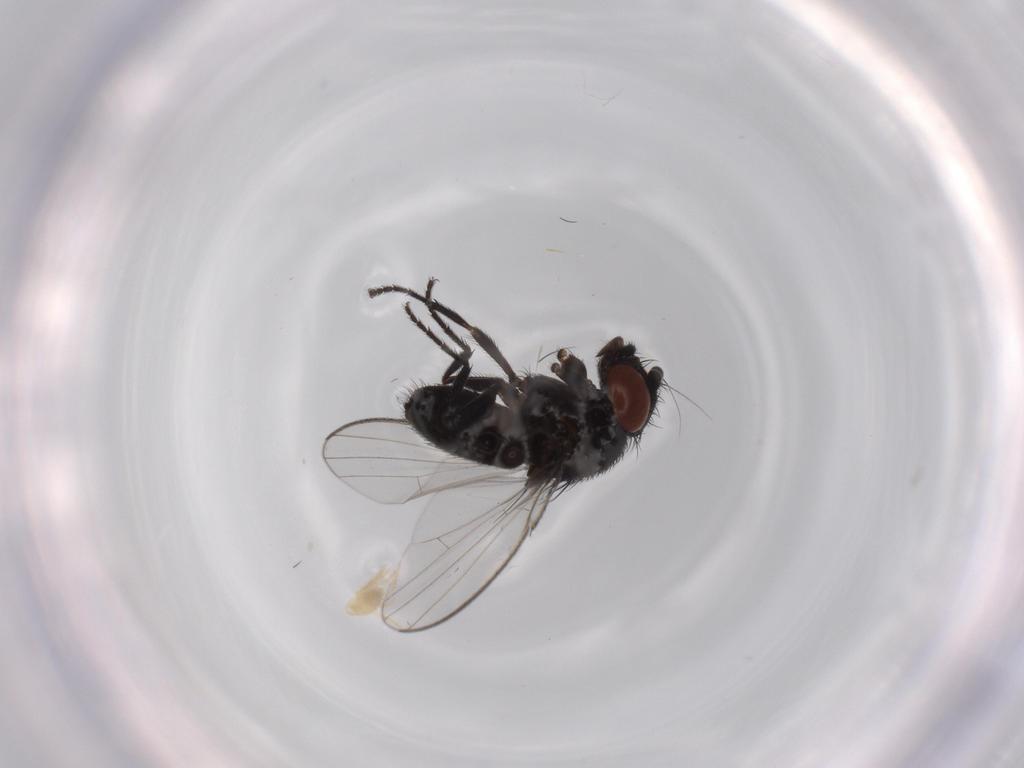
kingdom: Animalia
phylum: Arthropoda
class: Insecta
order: Diptera
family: Milichiidae
